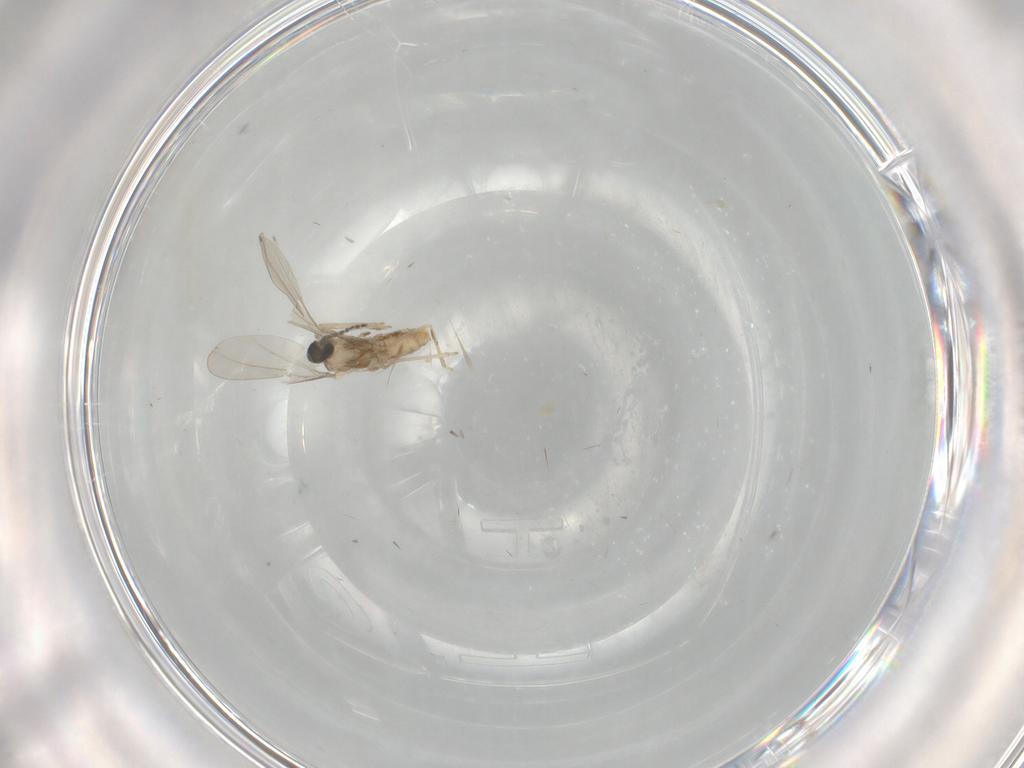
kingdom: Animalia
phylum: Arthropoda
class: Insecta
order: Diptera
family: Cecidomyiidae
